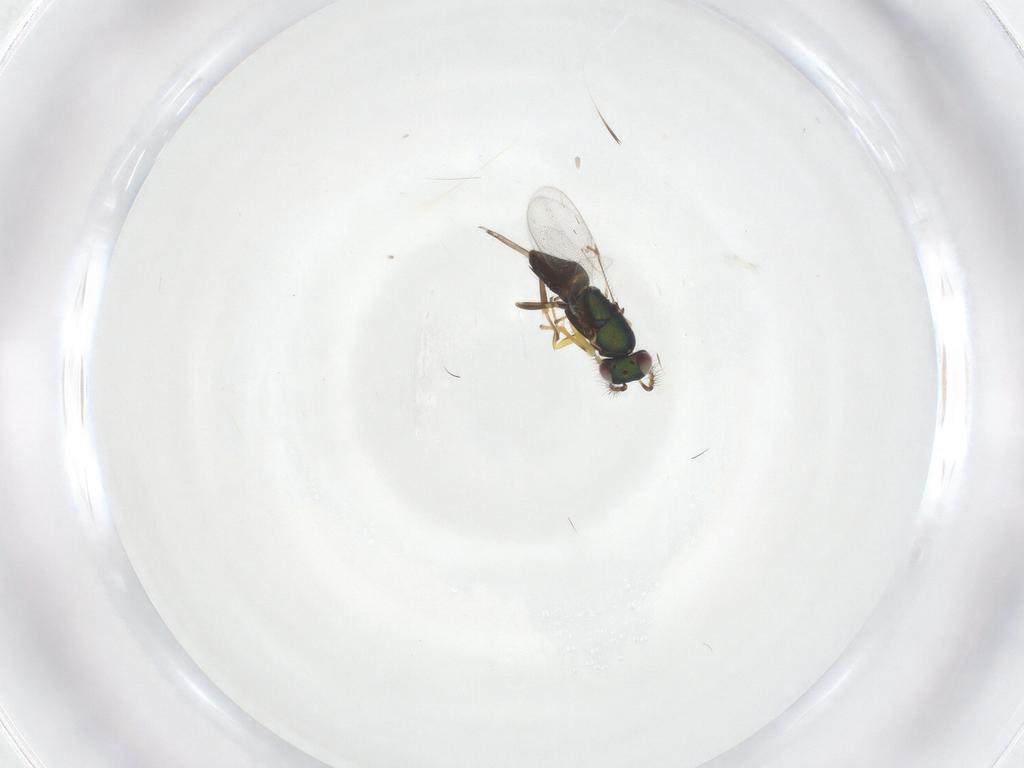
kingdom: Animalia
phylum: Arthropoda
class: Insecta
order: Hymenoptera
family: Encyrtidae
